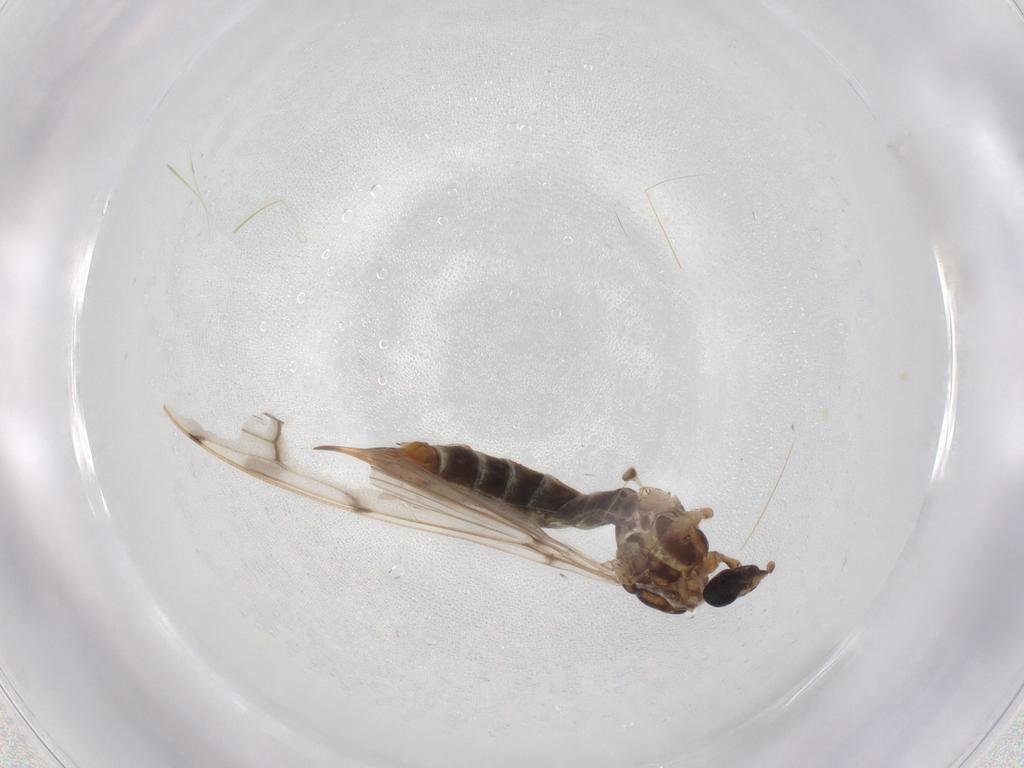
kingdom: Animalia
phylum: Arthropoda
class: Insecta
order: Diptera
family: Limoniidae
